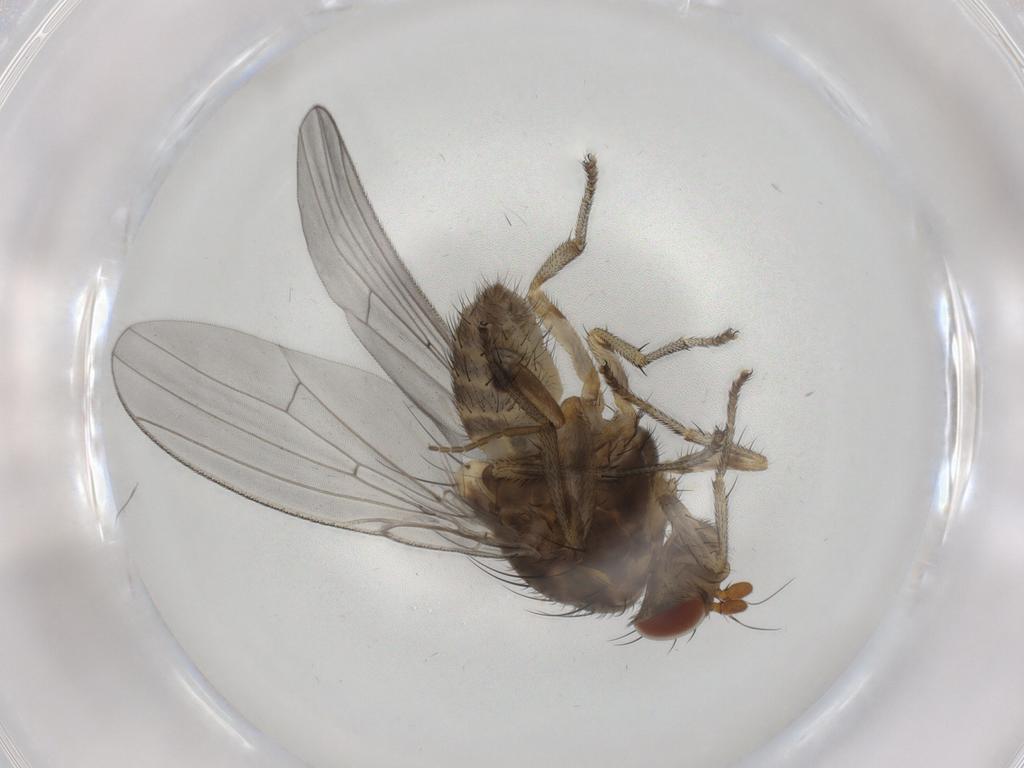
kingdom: Animalia
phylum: Arthropoda
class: Insecta
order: Diptera
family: Lauxaniidae
